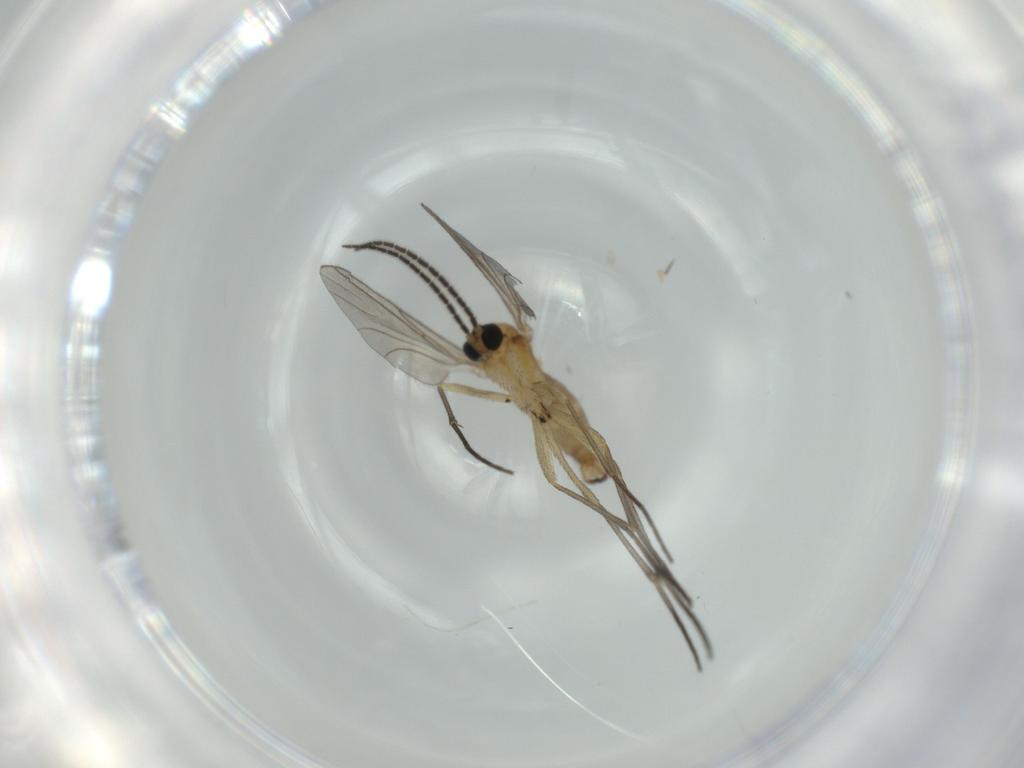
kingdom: Animalia
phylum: Arthropoda
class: Insecta
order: Diptera
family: Sciaridae
